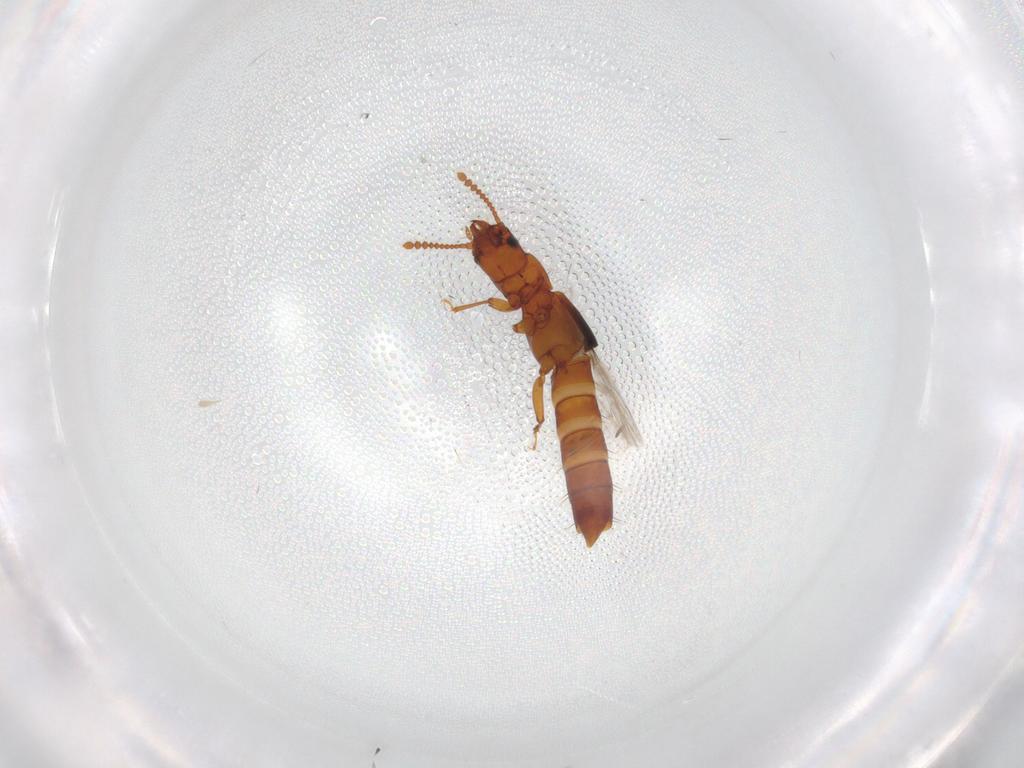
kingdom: Animalia
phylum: Arthropoda
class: Insecta
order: Coleoptera
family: Staphylinidae
